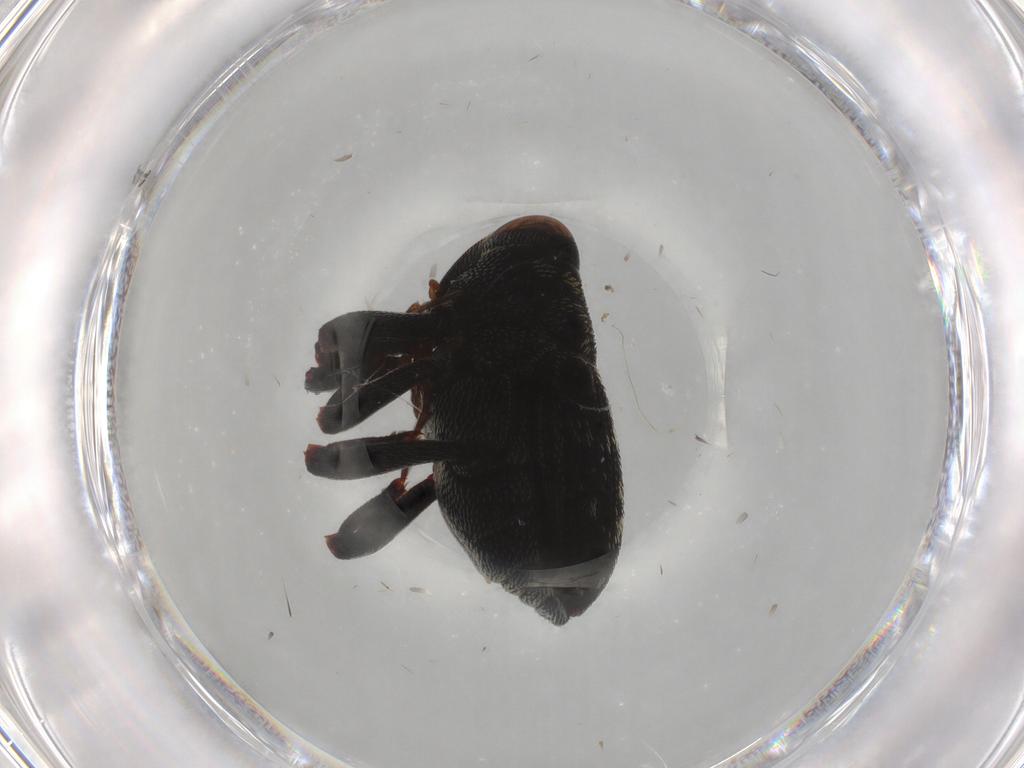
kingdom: Animalia
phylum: Arthropoda
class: Insecta
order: Coleoptera
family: Curculionidae
